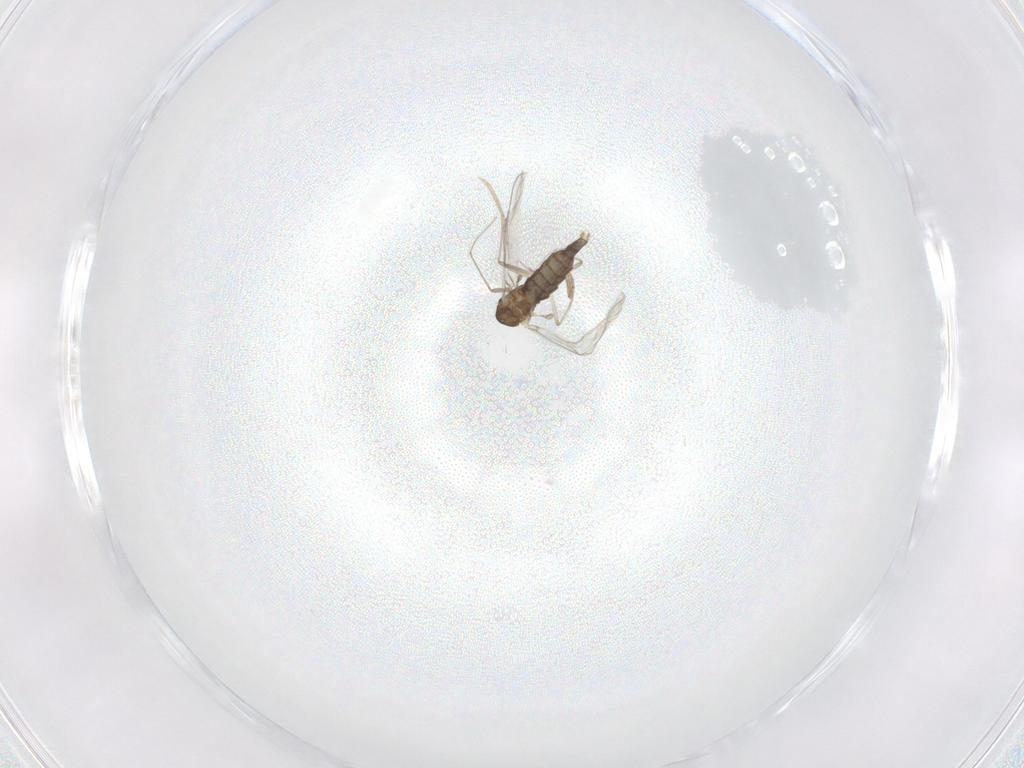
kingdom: Animalia
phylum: Arthropoda
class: Insecta
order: Diptera
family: Chironomidae
